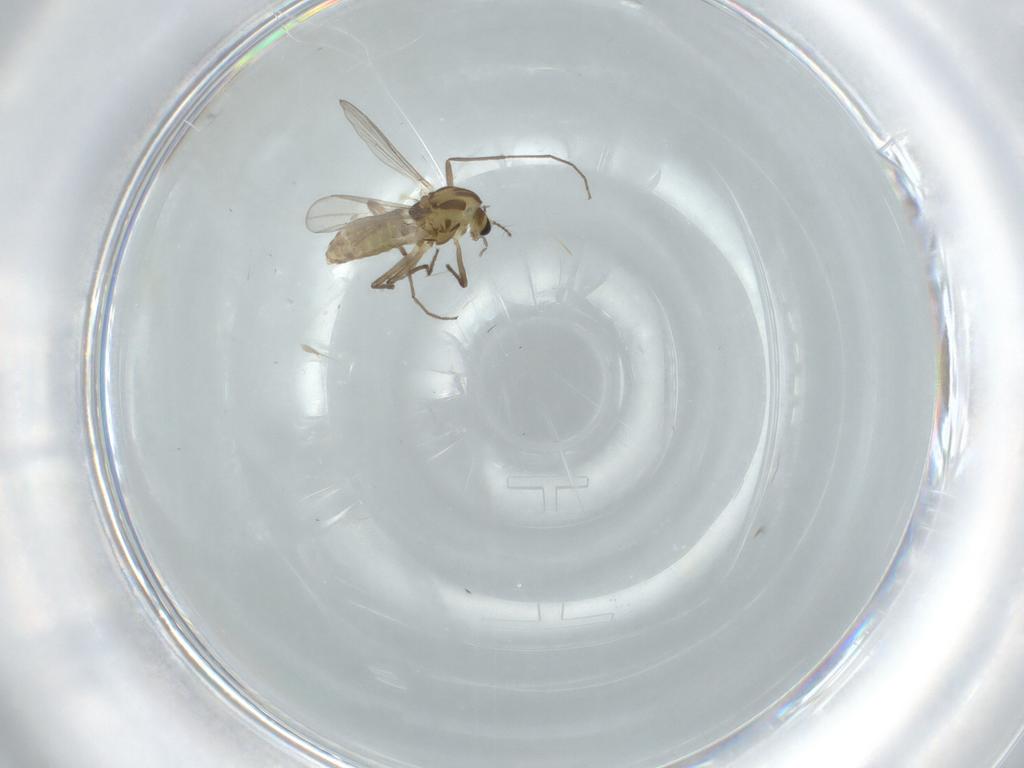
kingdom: Animalia
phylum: Arthropoda
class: Insecta
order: Diptera
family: Chironomidae
